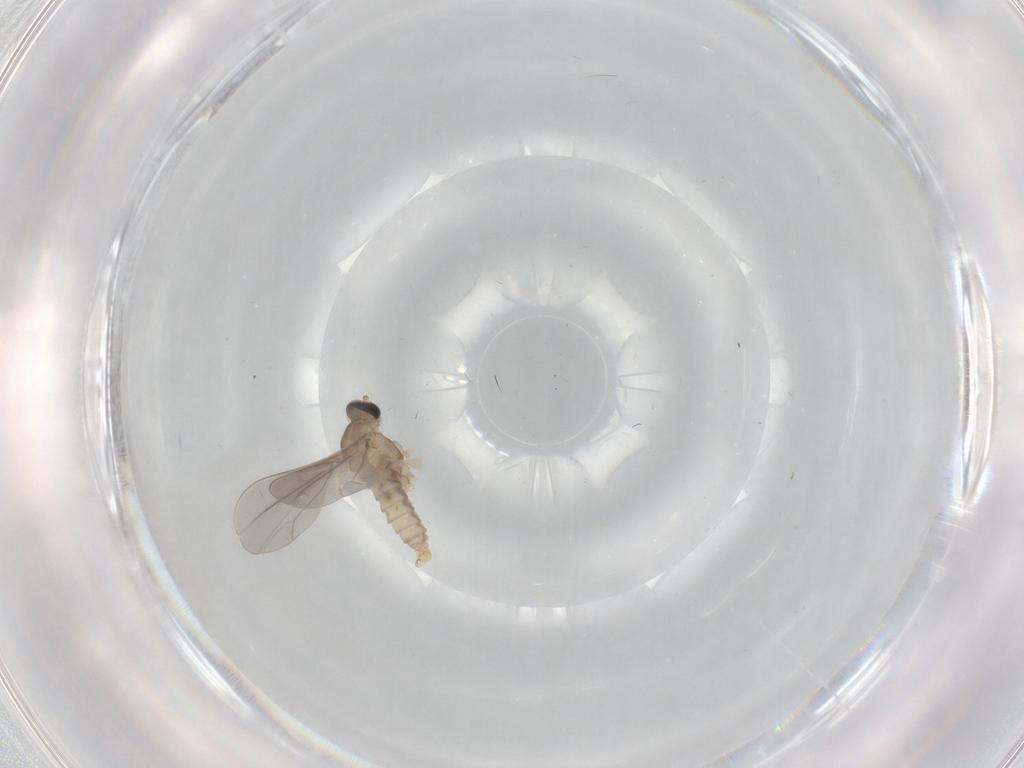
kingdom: Animalia
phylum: Arthropoda
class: Insecta
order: Diptera
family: Cecidomyiidae
